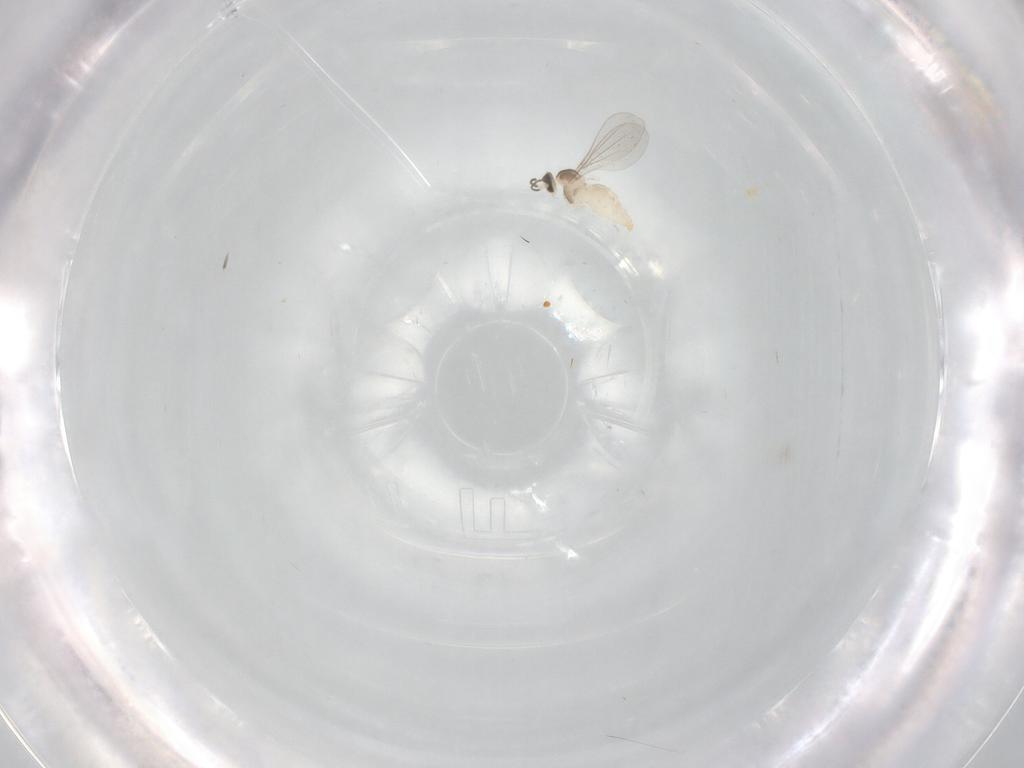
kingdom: Animalia
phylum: Arthropoda
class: Insecta
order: Diptera
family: Cecidomyiidae
